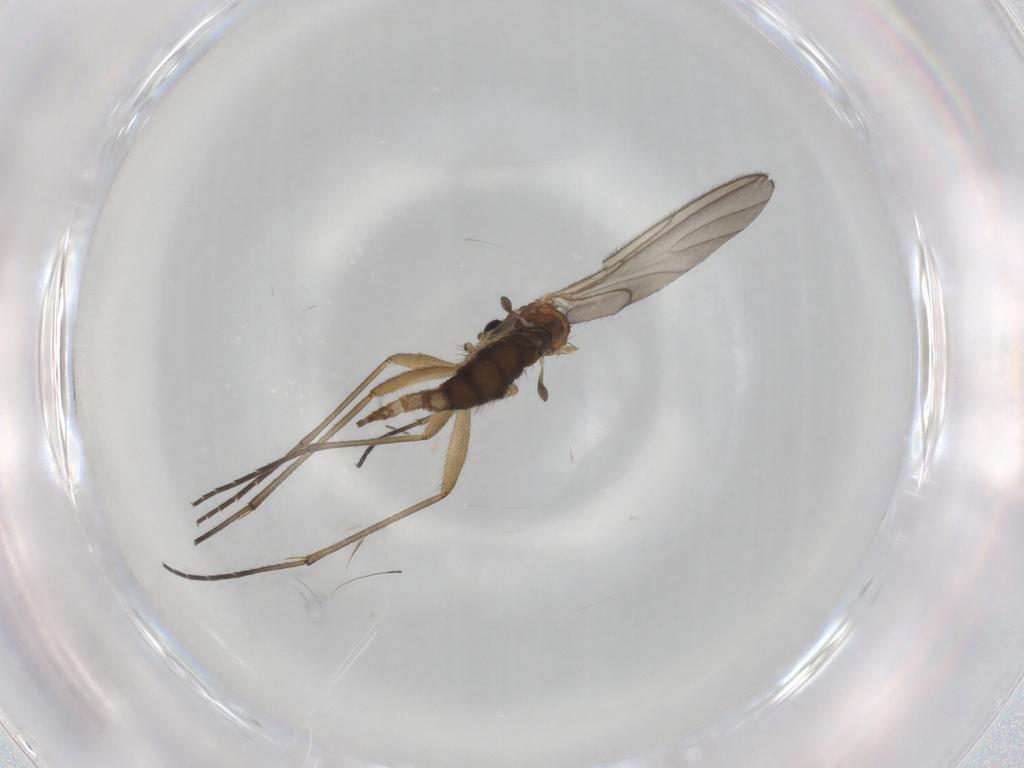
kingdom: Animalia
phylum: Arthropoda
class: Insecta
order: Diptera
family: Sciaridae
